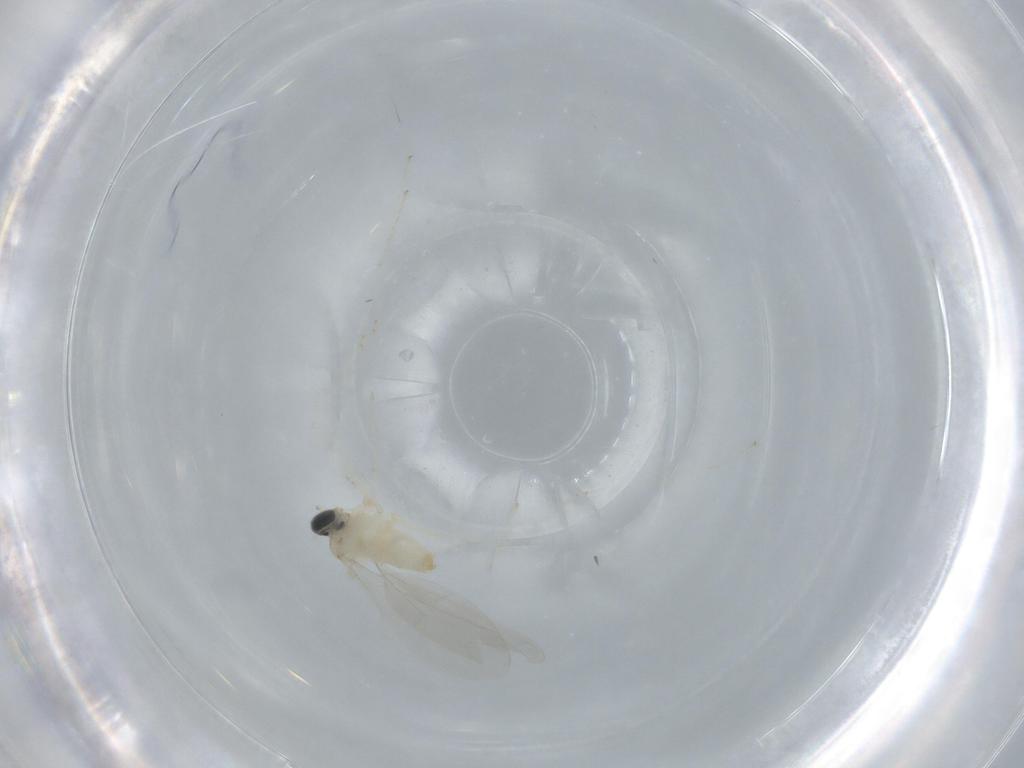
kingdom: Animalia
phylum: Arthropoda
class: Insecta
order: Diptera
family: Cecidomyiidae
